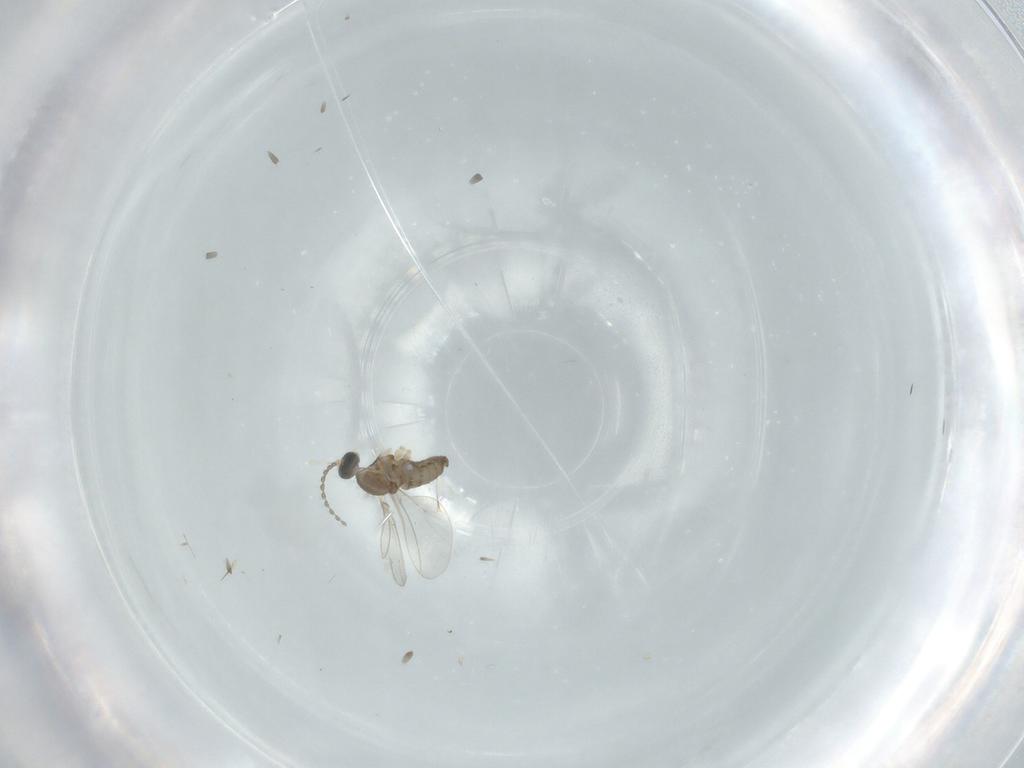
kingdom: Animalia
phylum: Arthropoda
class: Insecta
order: Diptera
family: Cecidomyiidae
